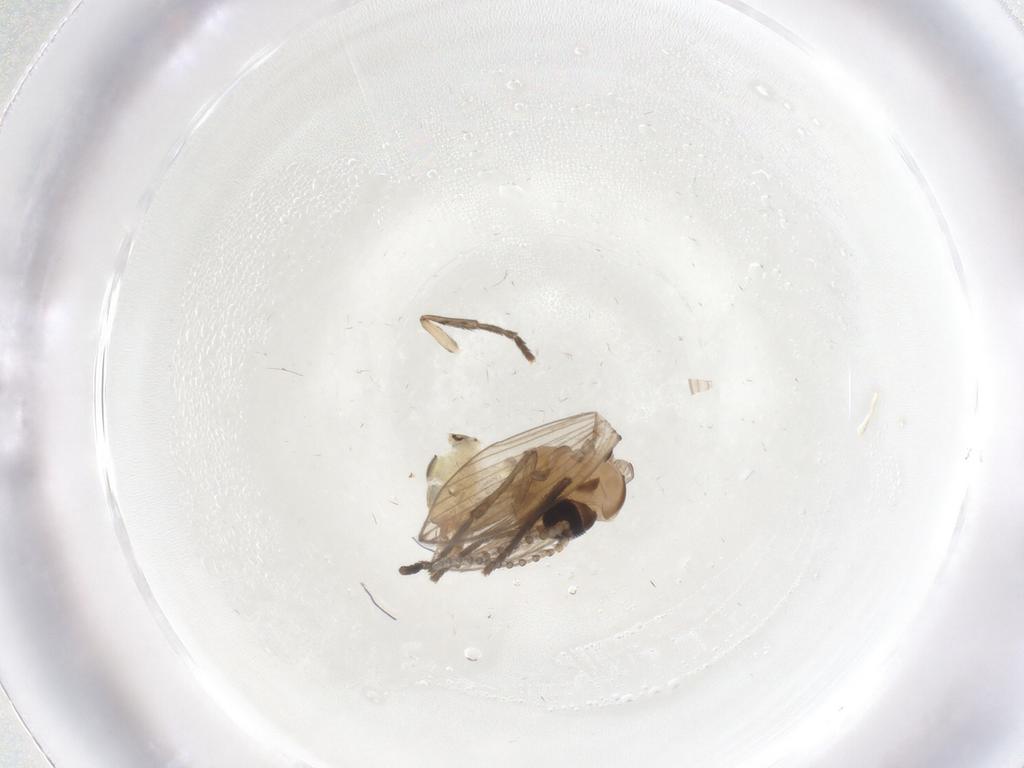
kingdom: Animalia
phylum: Arthropoda
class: Insecta
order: Diptera
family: Psychodidae
